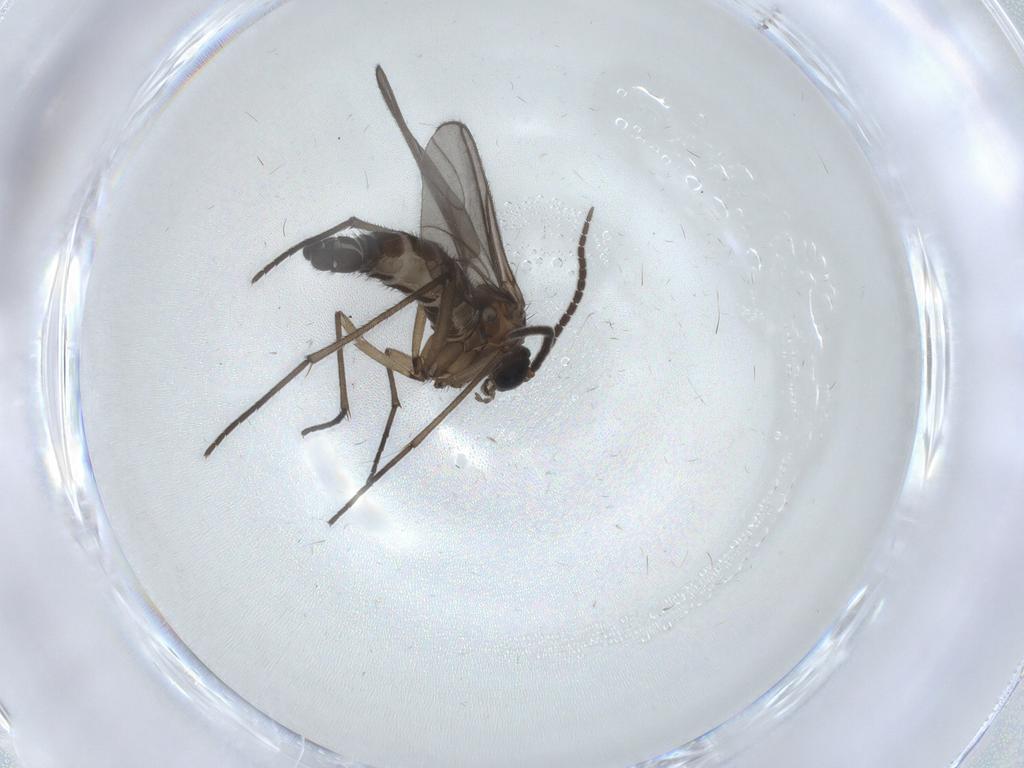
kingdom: Animalia
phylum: Arthropoda
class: Insecta
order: Diptera
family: Sciaridae
